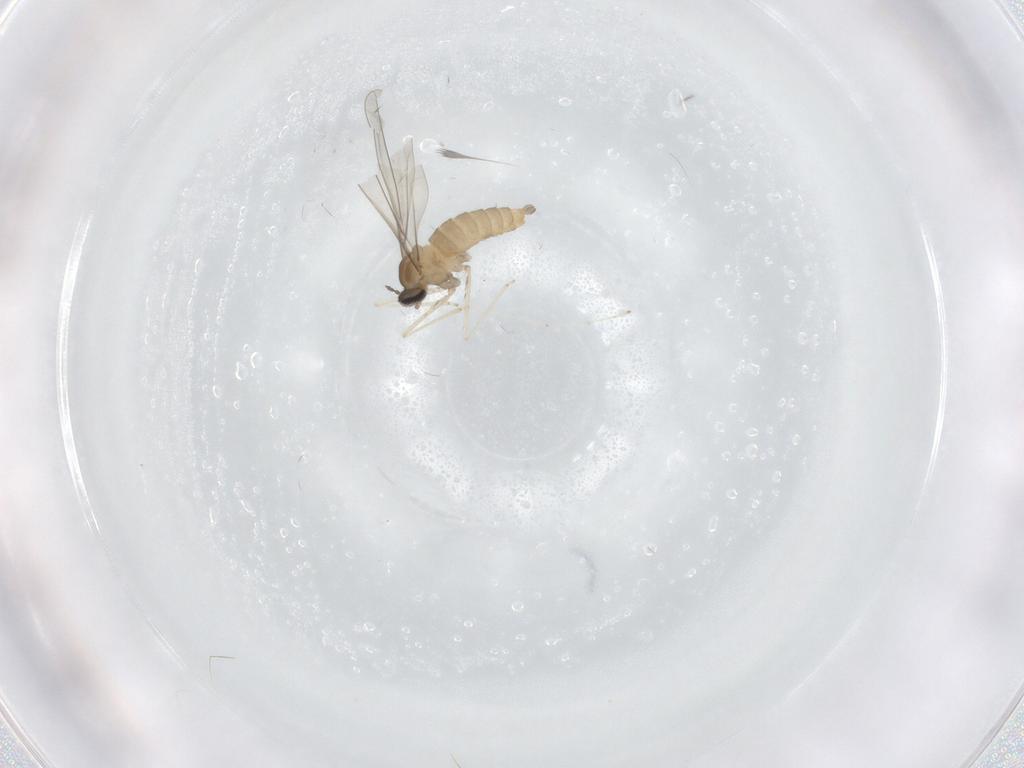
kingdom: Animalia
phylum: Arthropoda
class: Insecta
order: Diptera
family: Cecidomyiidae
